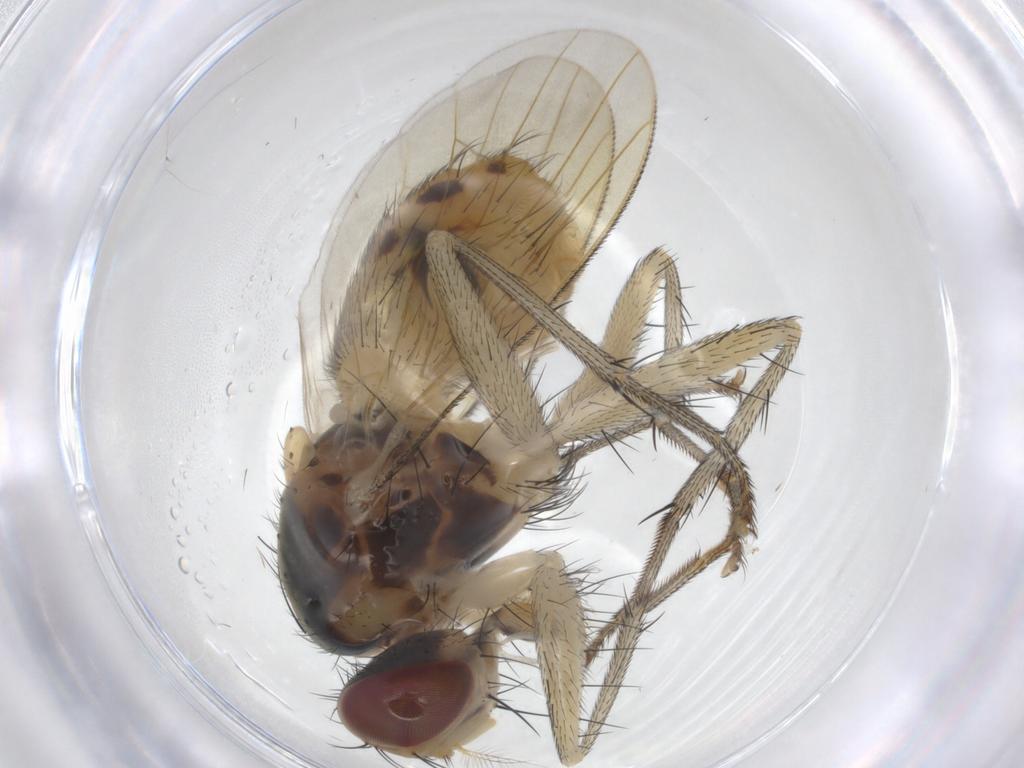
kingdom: Animalia
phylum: Arthropoda
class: Insecta
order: Diptera
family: Muscidae
